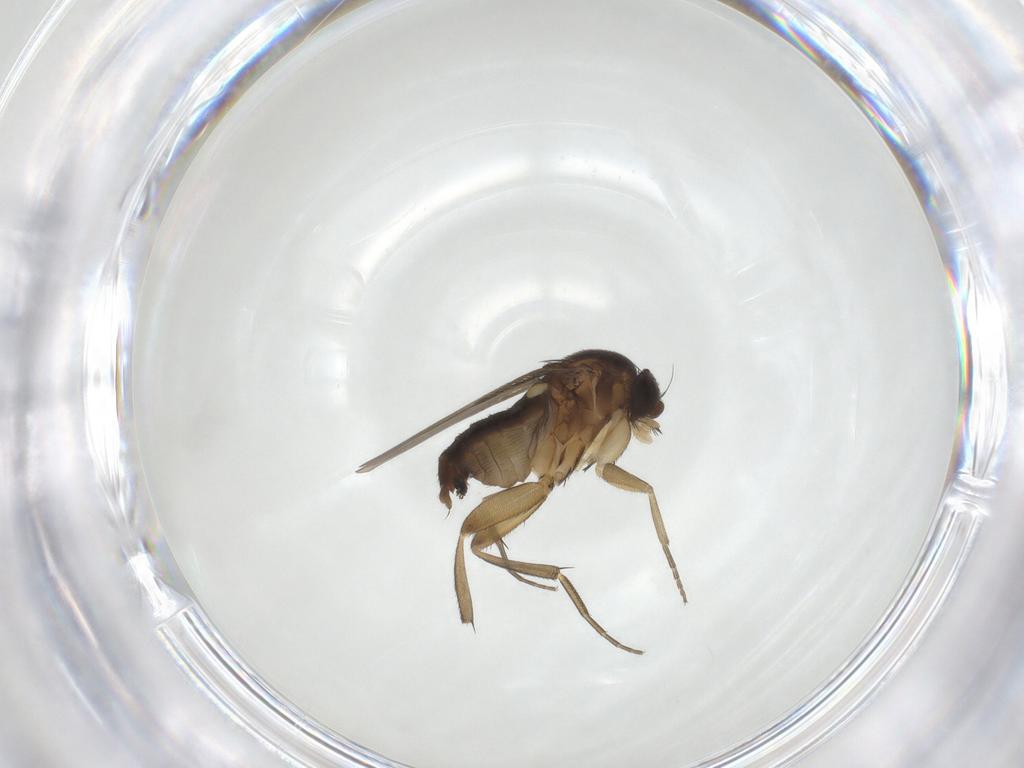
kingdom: Animalia
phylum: Arthropoda
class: Insecta
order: Diptera
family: Phoridae
